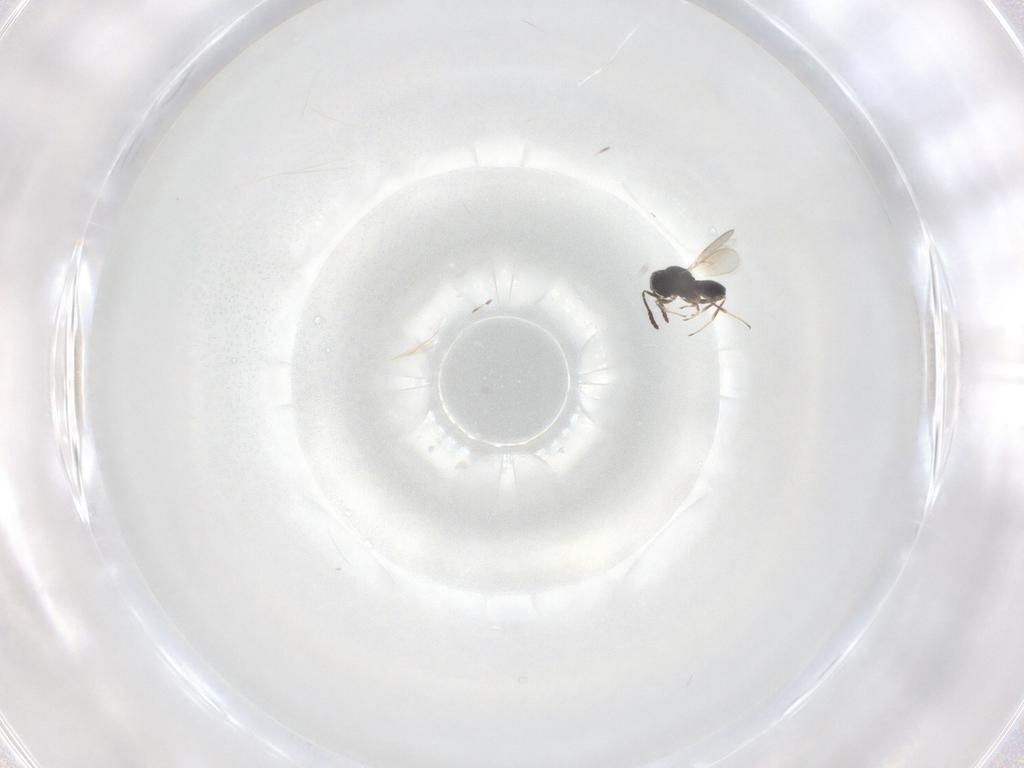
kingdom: Animalia
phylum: Arthropoda
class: Insecta
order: Hymenoptera
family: Scelionidae
